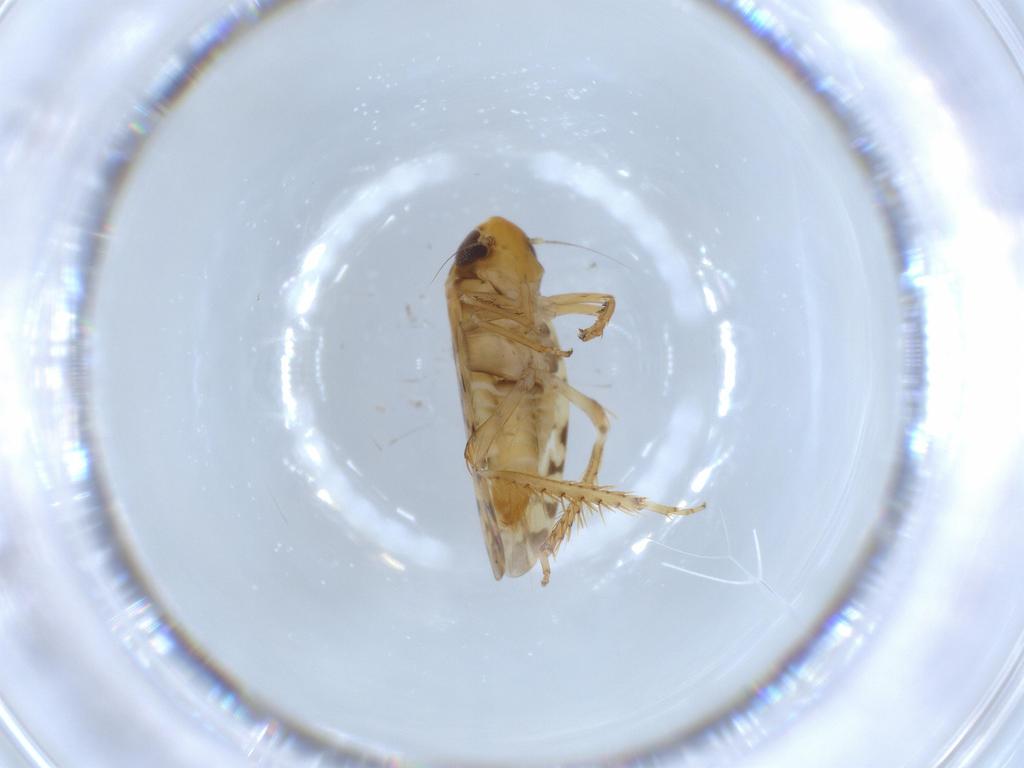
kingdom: Animalia
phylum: Arthropoda
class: Insecta
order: Hemiptera
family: Cicadellidae
